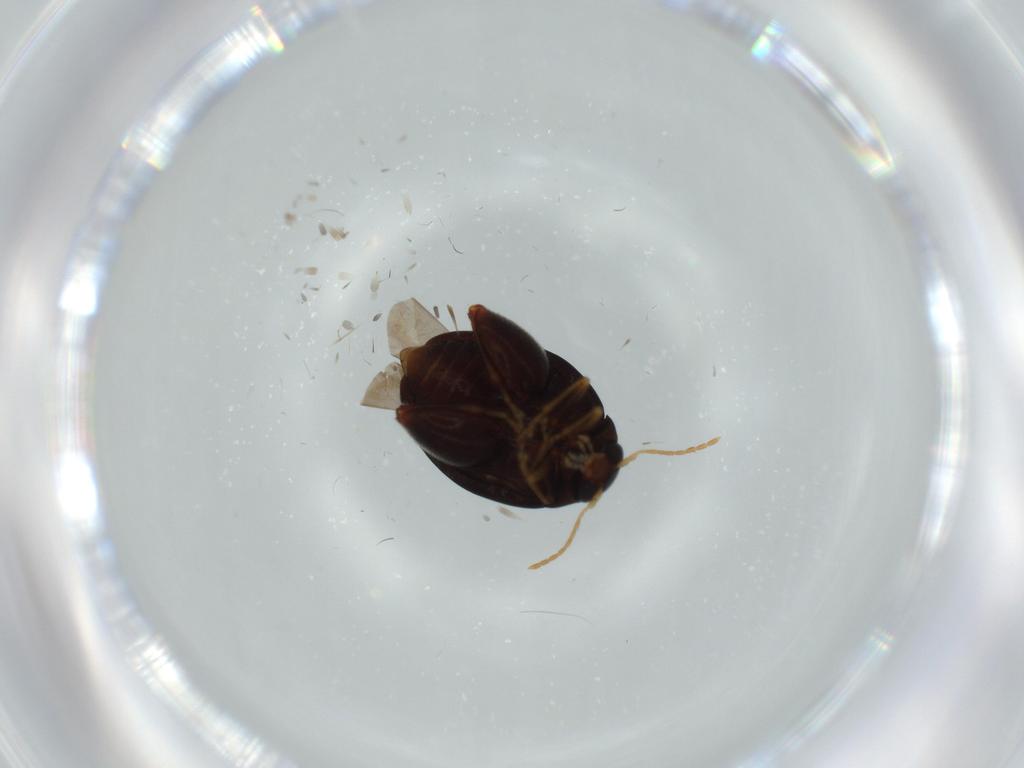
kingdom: Animalia
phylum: Arthropoda
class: Insecta
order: Coleoptera
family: Chrysomelidae
